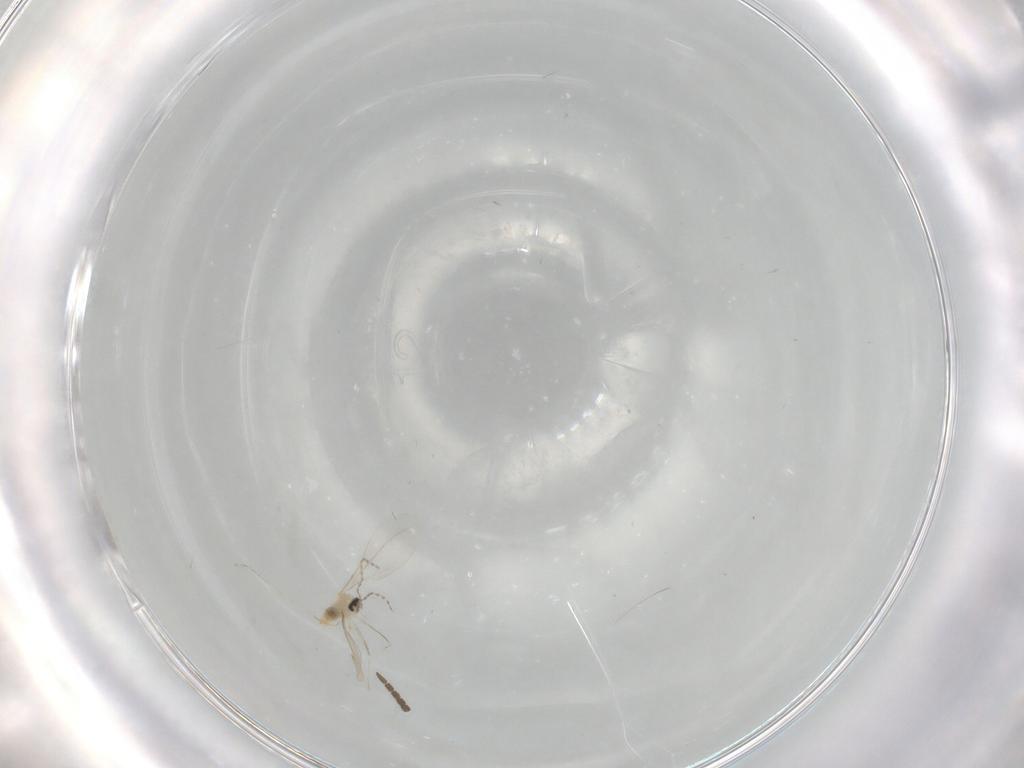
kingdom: Animalia
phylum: Arthropoda
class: Insecta
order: Diptera
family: Cecidomyiidae
